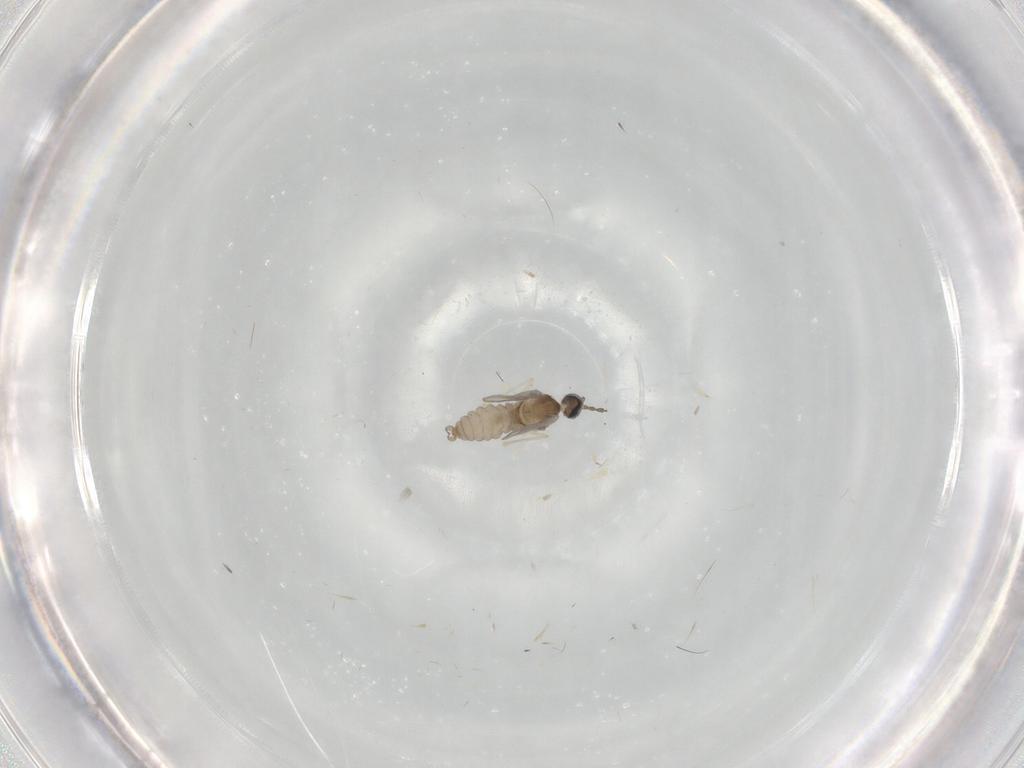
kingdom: Animalia
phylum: Arthropoda
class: Insecta
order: Diptera
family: Cecidomyiidae
